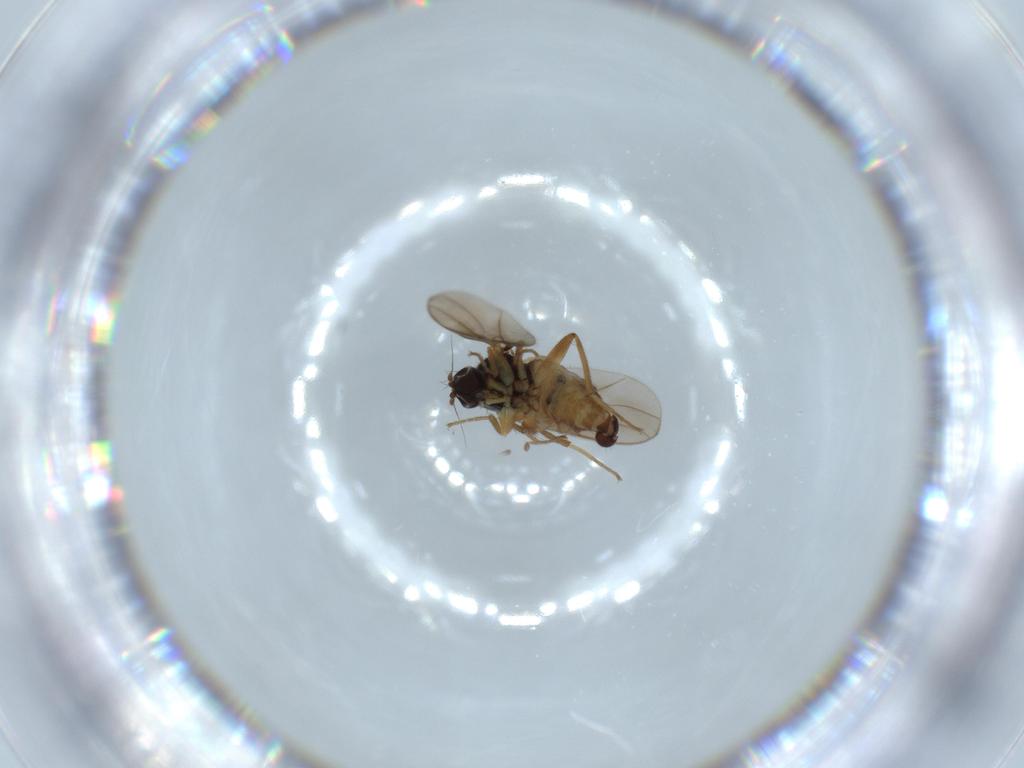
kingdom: Animalia
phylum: Arthropoda
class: Insecta
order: Diptera
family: Hybotidae
